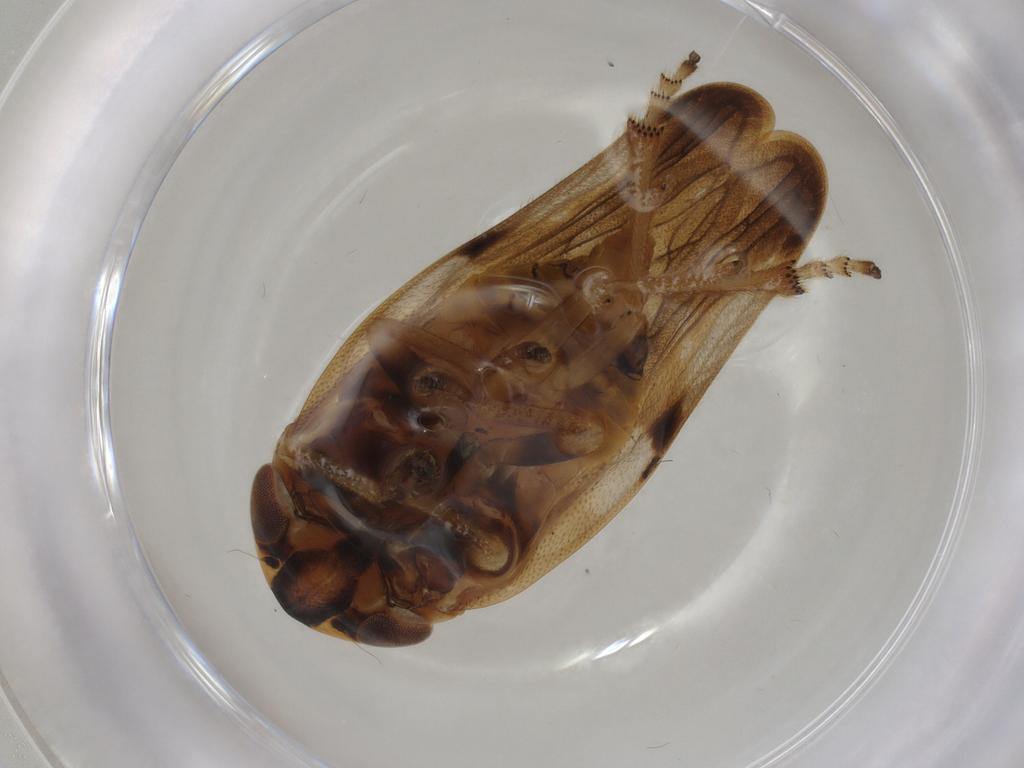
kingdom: Animalia
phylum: Arthropoda
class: Insecta
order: Hemiptera
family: Aphrophoridae
